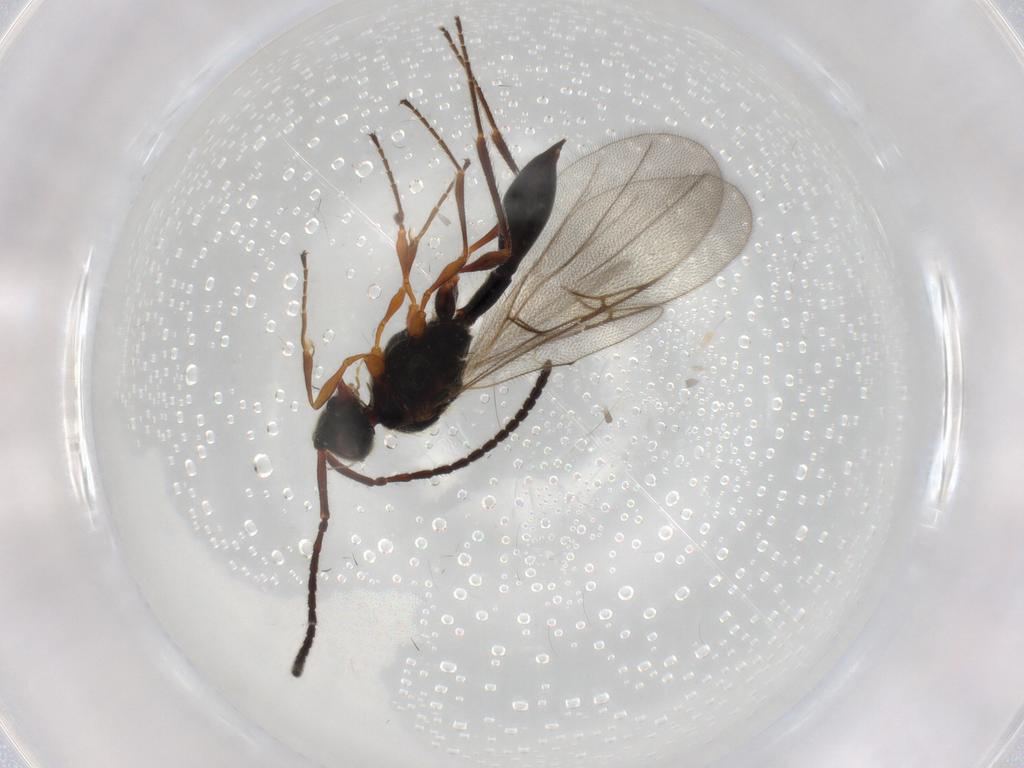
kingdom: Animalia
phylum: Arthropoda
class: Insecta
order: Hymenoptera
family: Diapriidae
